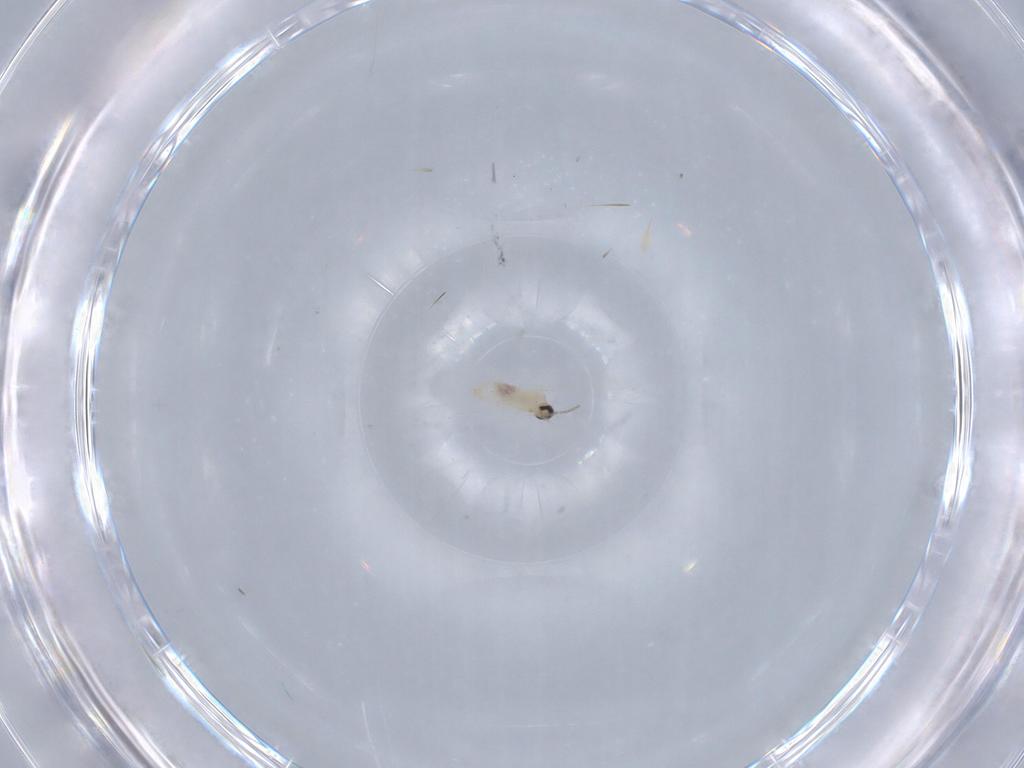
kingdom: Animalia
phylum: Arthropoda
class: Insecta
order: Diptera
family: Cecidomyiidae
